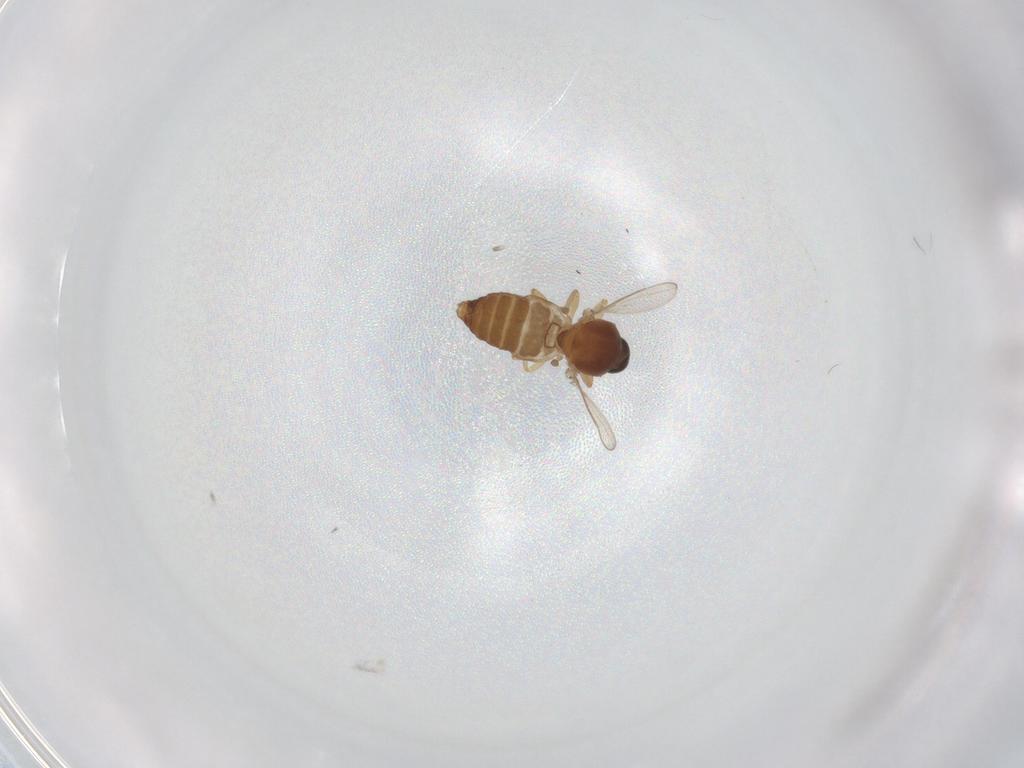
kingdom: Animalia
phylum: Arthropoda
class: Insecta
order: Diptera
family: Ceratopogonidae
